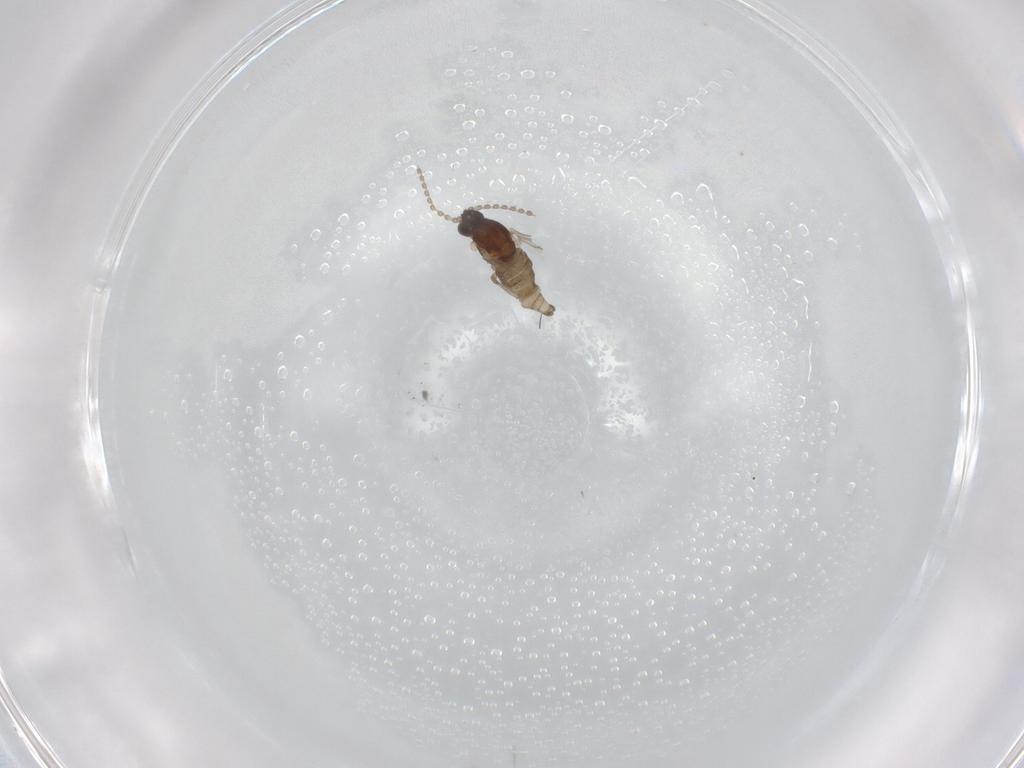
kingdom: Animalia
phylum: Arthropoda
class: Insecta
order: Diptera
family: Cecidomyiidae
